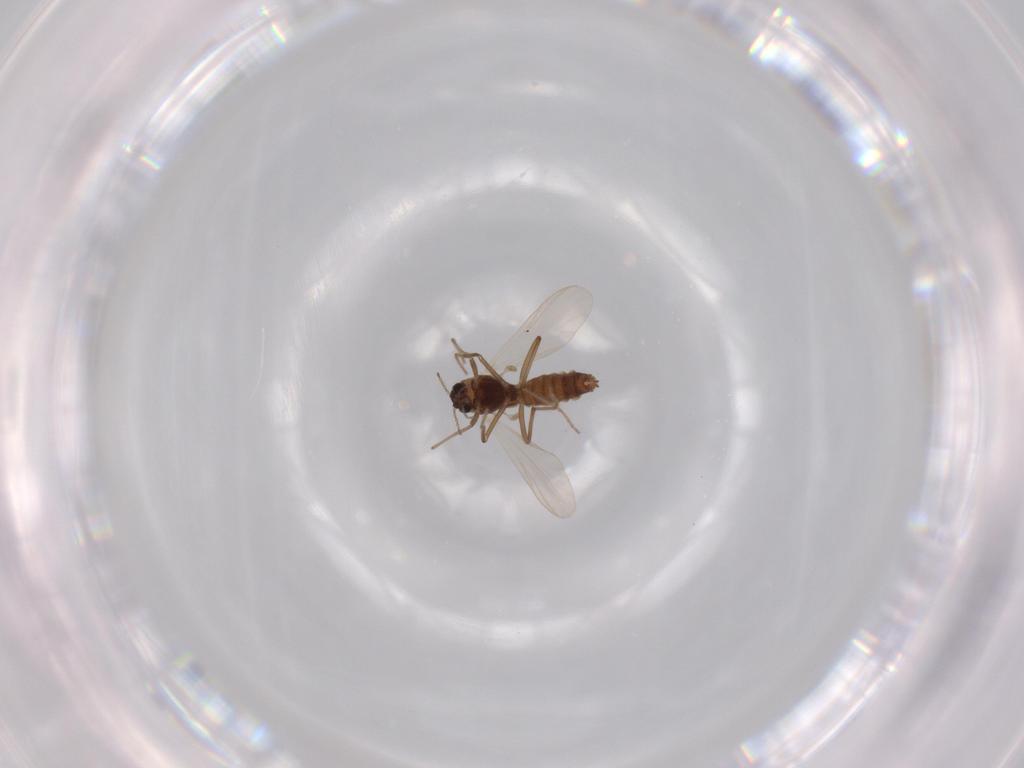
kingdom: Animalia
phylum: Arthropoda
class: Insecta
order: Diptera
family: Chironomidae
